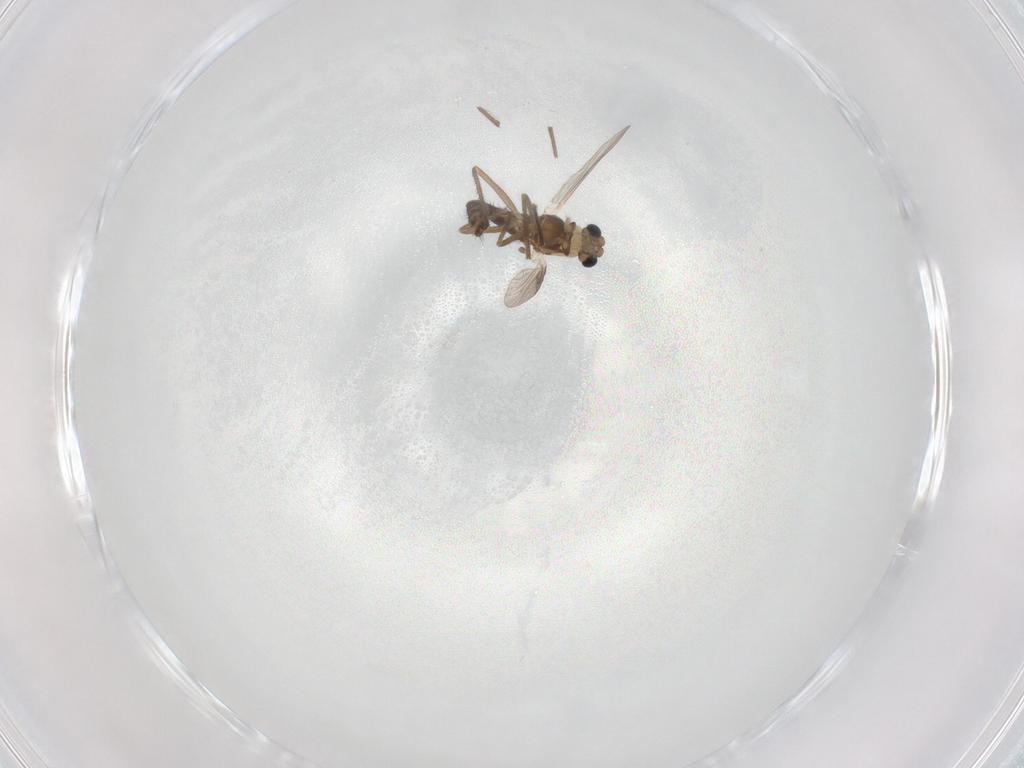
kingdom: Animalia
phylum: Arthropoda
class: Insecta
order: Diptera
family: Chironomidae
